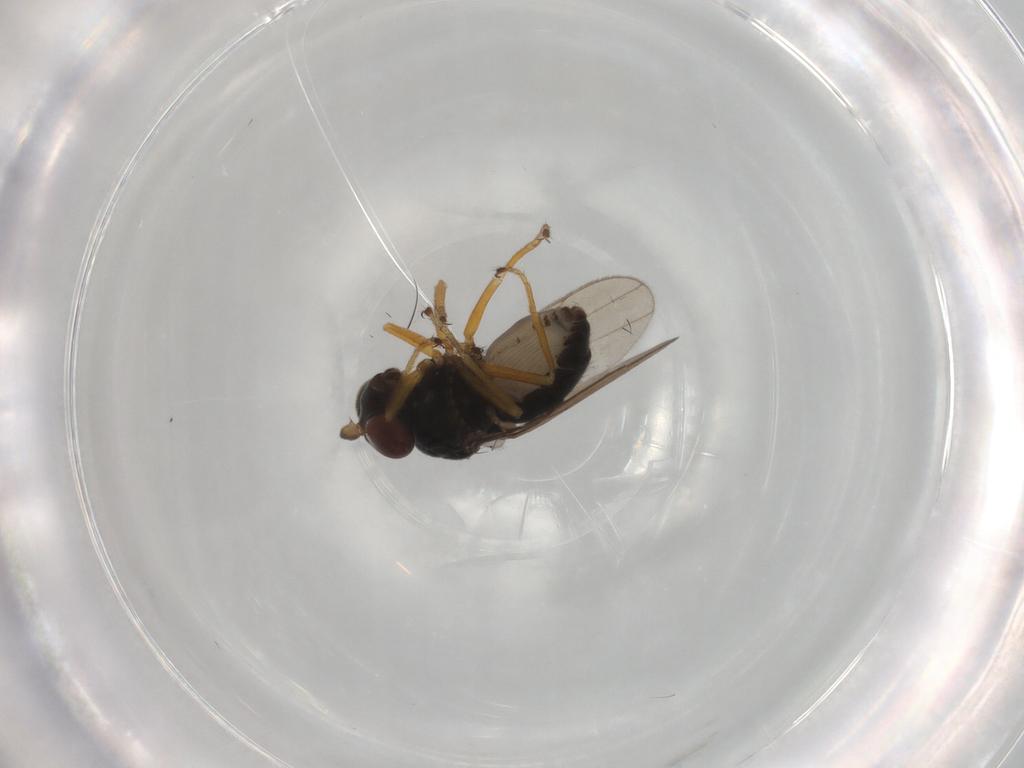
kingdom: Animalia
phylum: Arthropoda
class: Insecta
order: Diptera
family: Ephydridae
